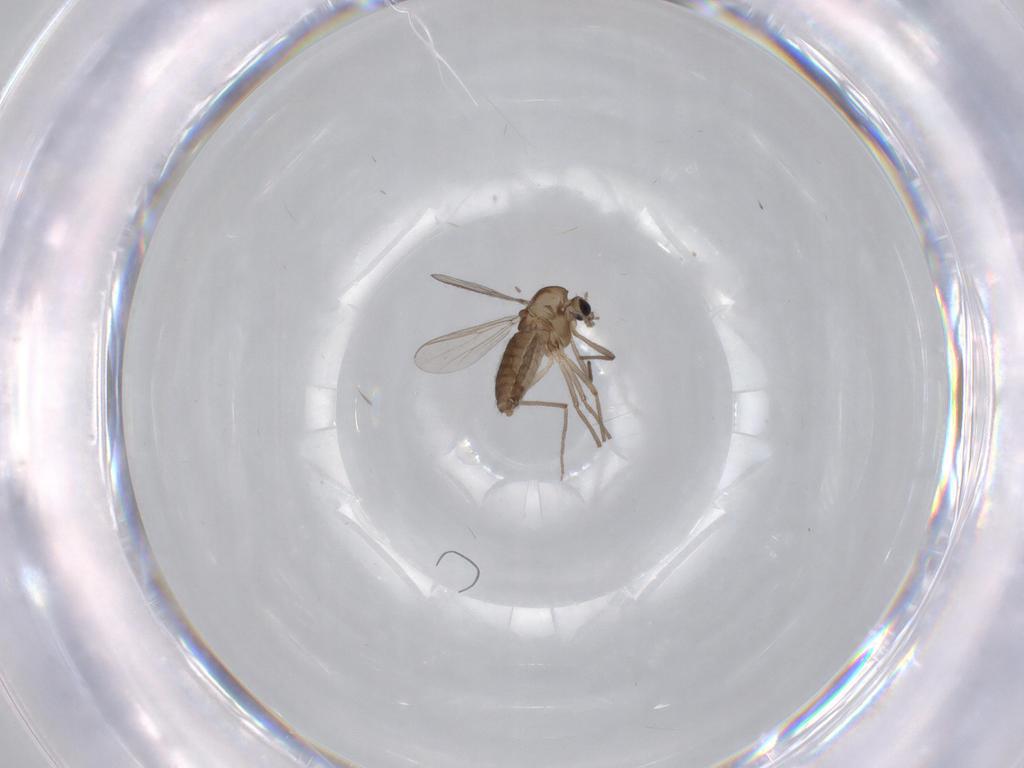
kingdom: Animalia
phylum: Arthropoda
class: Insecta
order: Diptera
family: Chironomidae
